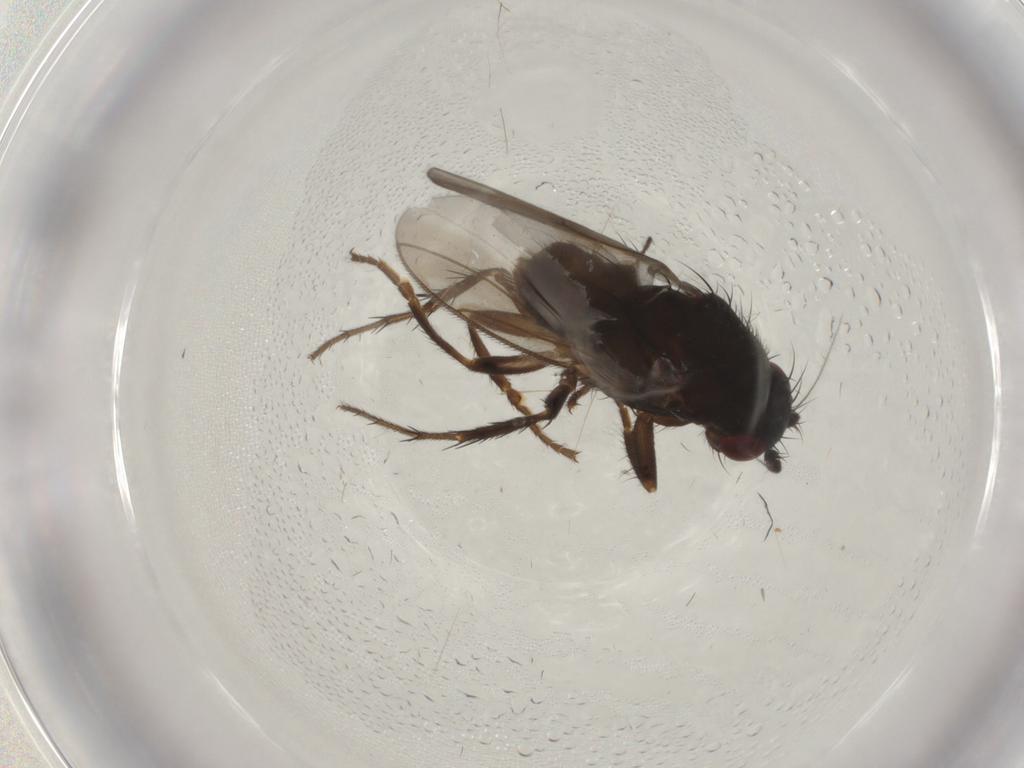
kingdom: Animalia
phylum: Arthropoda
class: Insecta
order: Diptera
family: Sphaeroceridae
